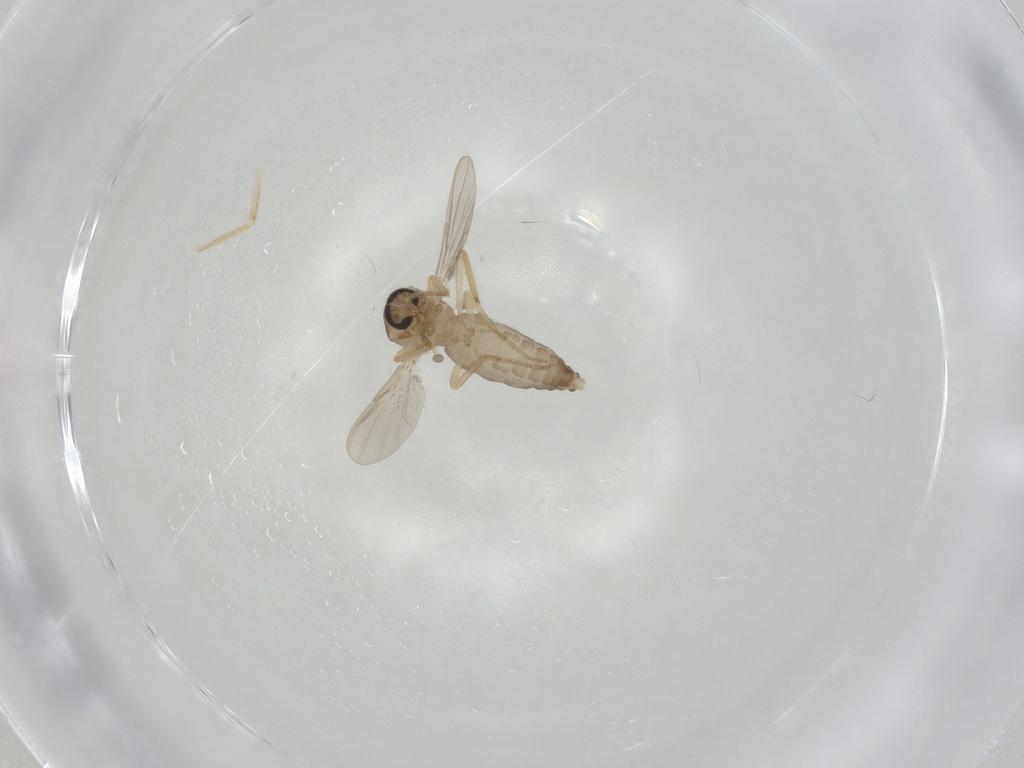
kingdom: Animalia
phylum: Arthropoda
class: Insecta
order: Diptera
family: Ceratopogonidae
